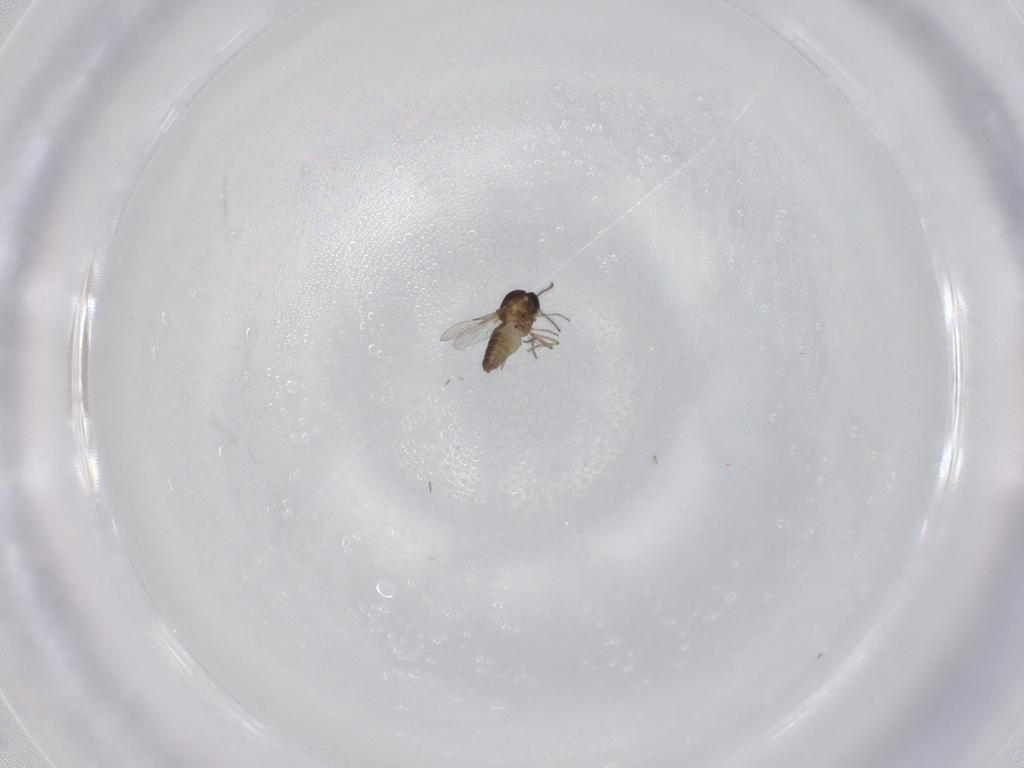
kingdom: Animalia
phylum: Arthropoda
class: Insecta
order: Diptera
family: Ceratopogonidae
